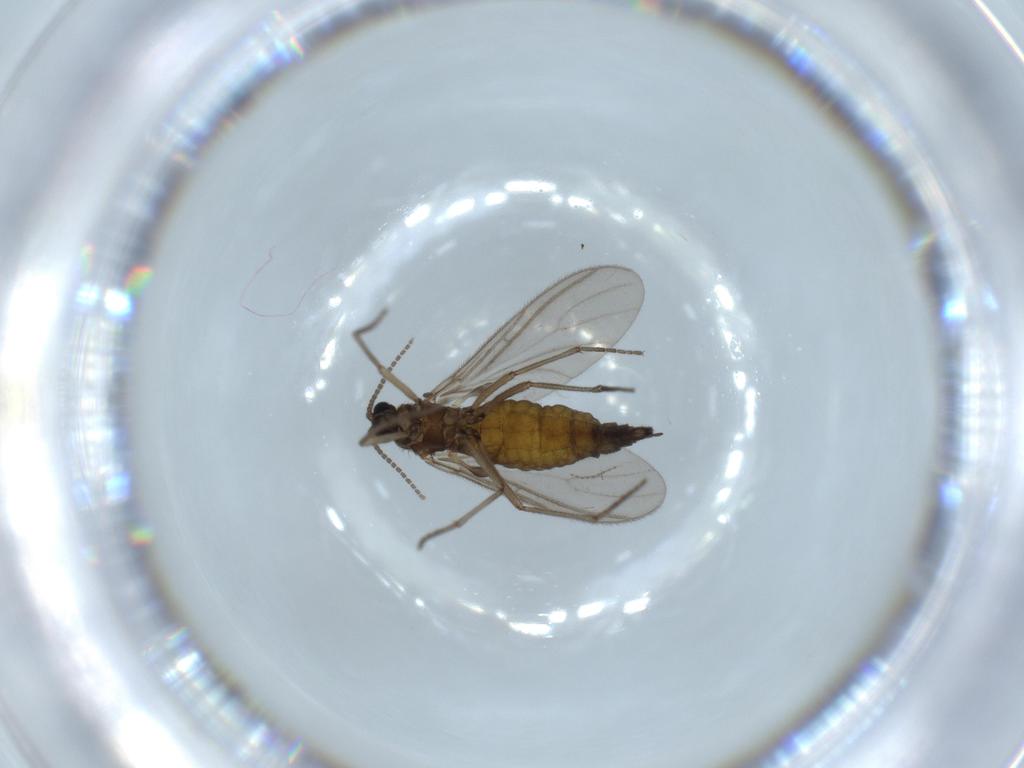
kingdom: Animalia
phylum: Arthropoda
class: Insecta
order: Diptera
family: Sciaridae
